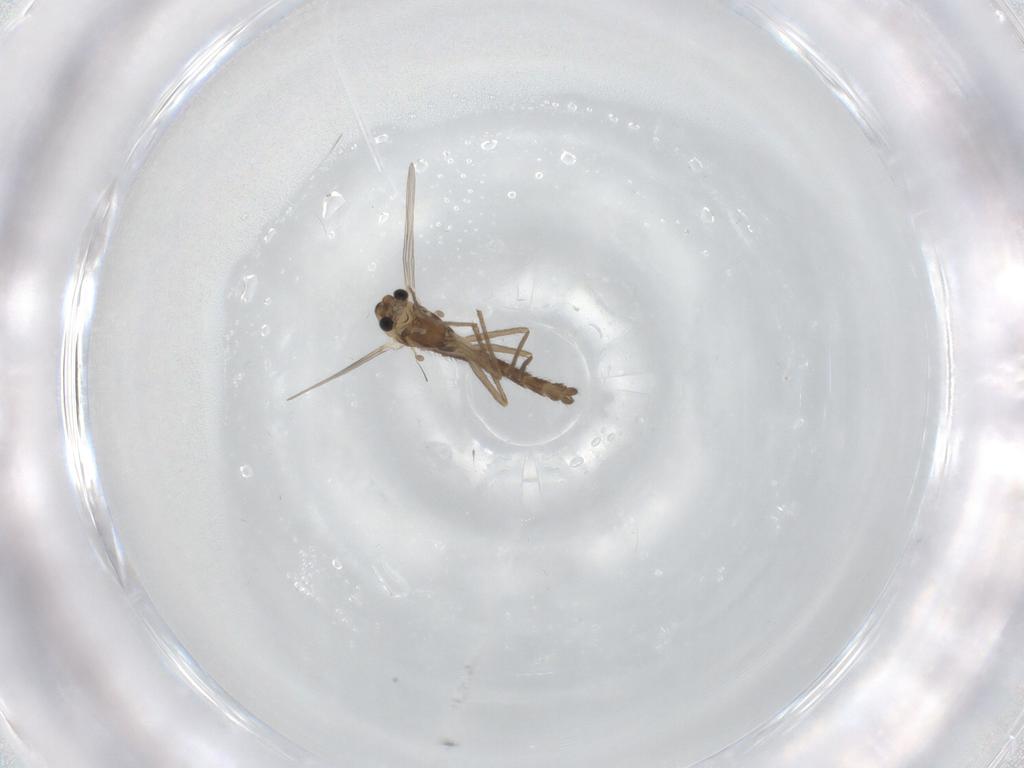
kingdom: Animalia
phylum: Arthropoda
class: Insecta
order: Diptera
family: Chironomidae
